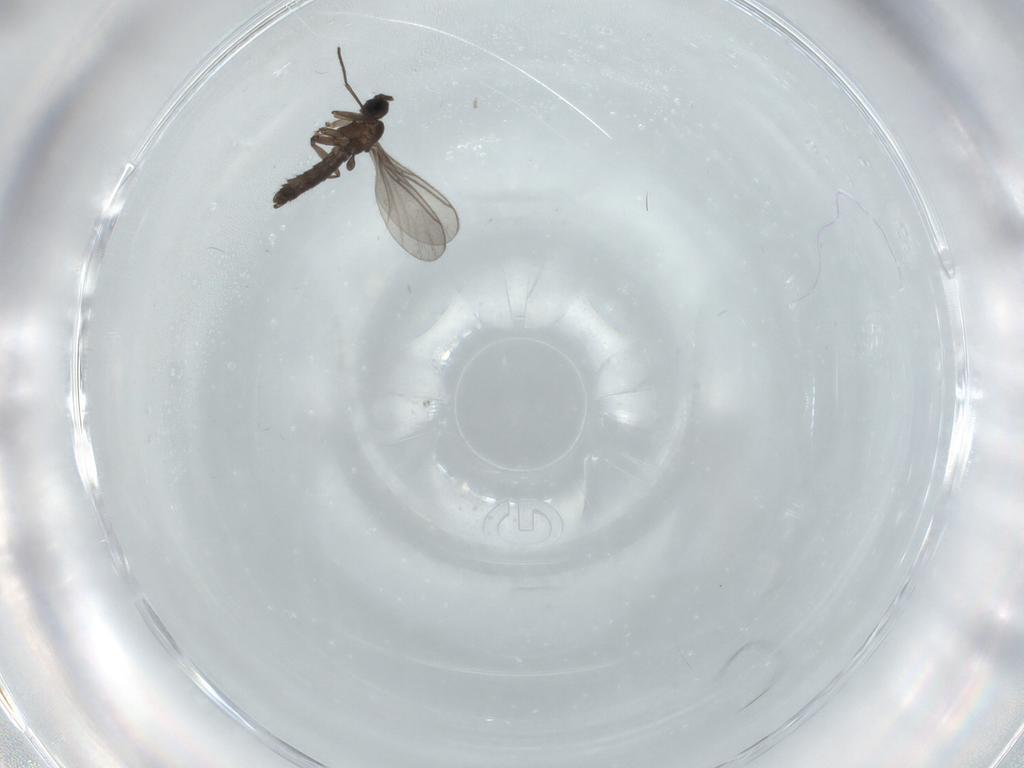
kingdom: Animalia
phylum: Arthropoda
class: Insecta
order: Diptera
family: Cecidomyiidae
